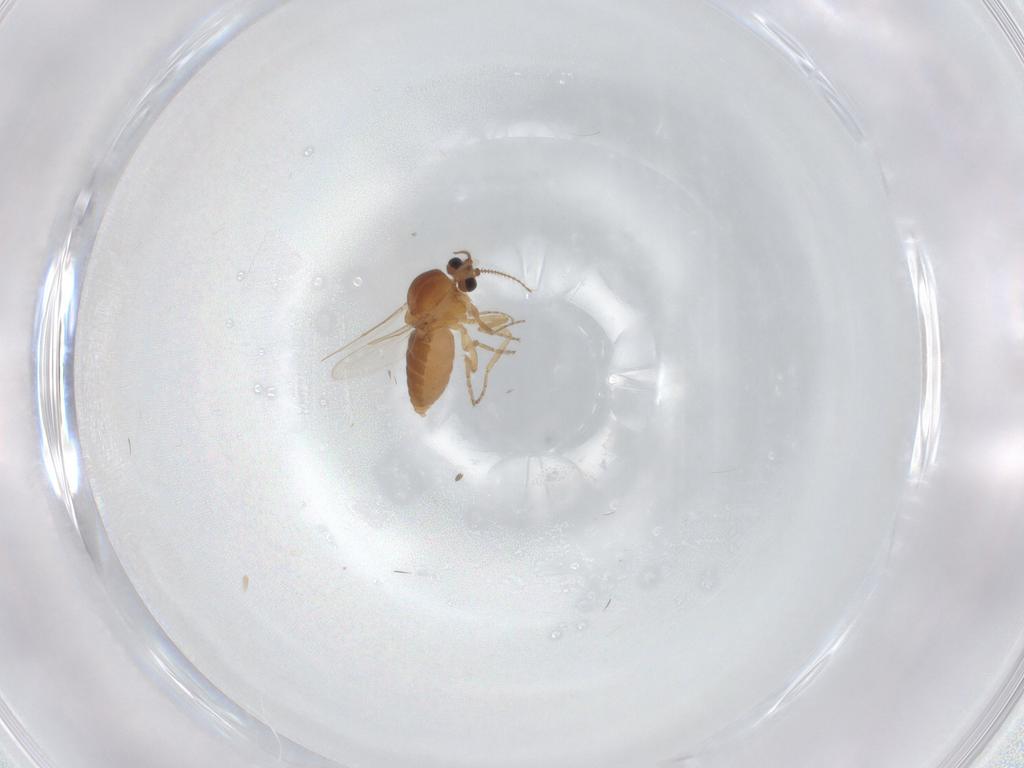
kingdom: Animalia
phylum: Arthropoda
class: Insecta
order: Diptera
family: Ceratopogonidae
